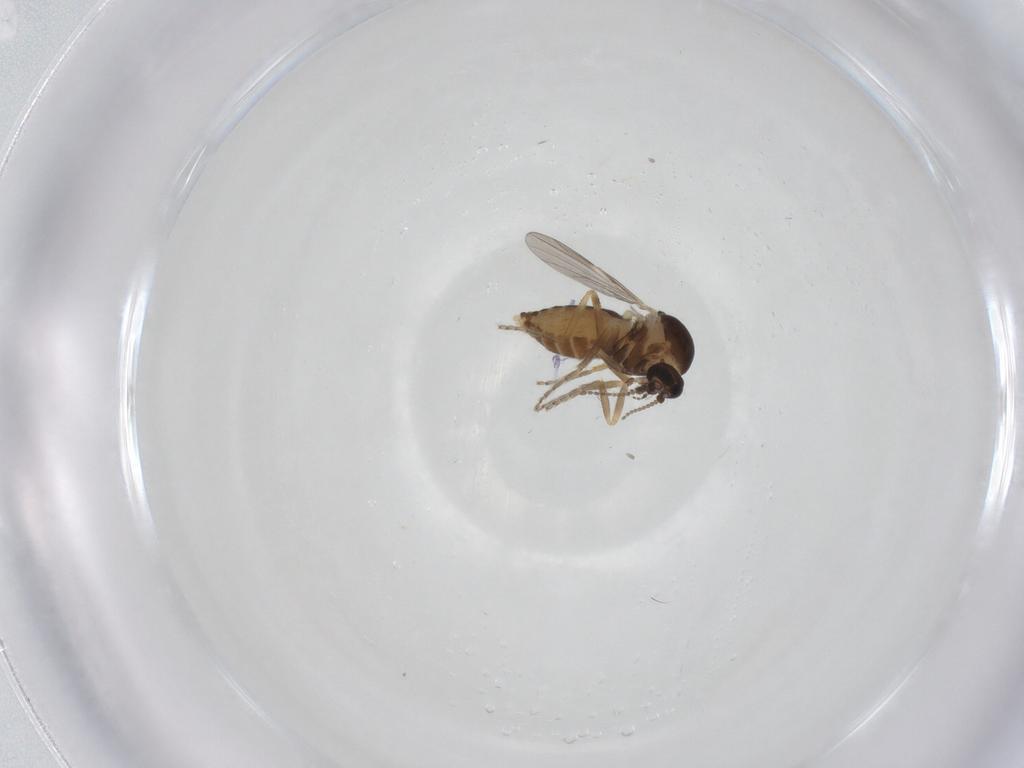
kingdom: Animalia
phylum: Arthropoda
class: Insecta
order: Diptera
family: Ceratopogonidae
